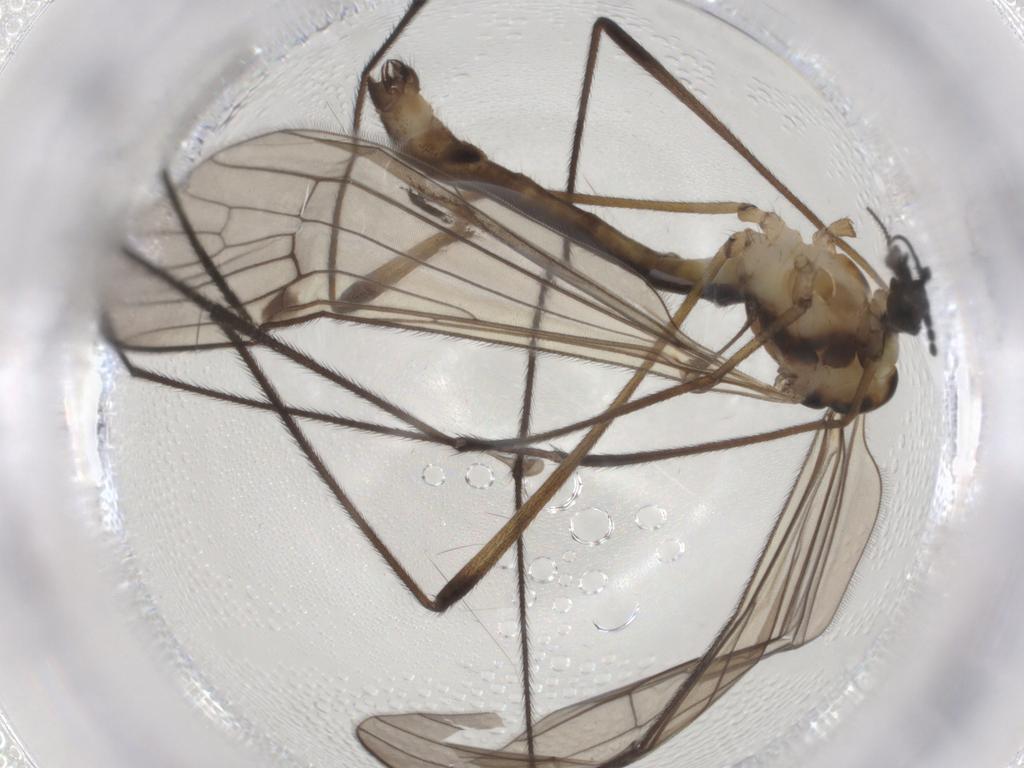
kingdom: Animalia
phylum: Arthropoda
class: Insecta
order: Diptera
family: Limoniidae
